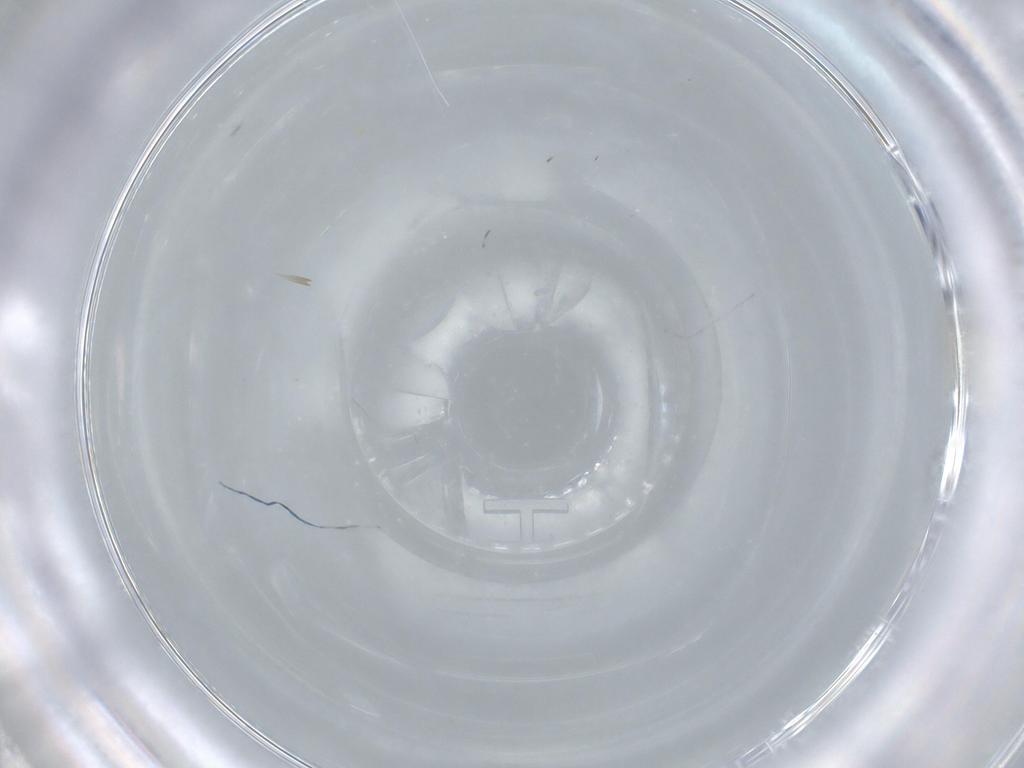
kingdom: Animalia
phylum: Arthropoda
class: Insecta
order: Diptera
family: Cecidomyiidae
